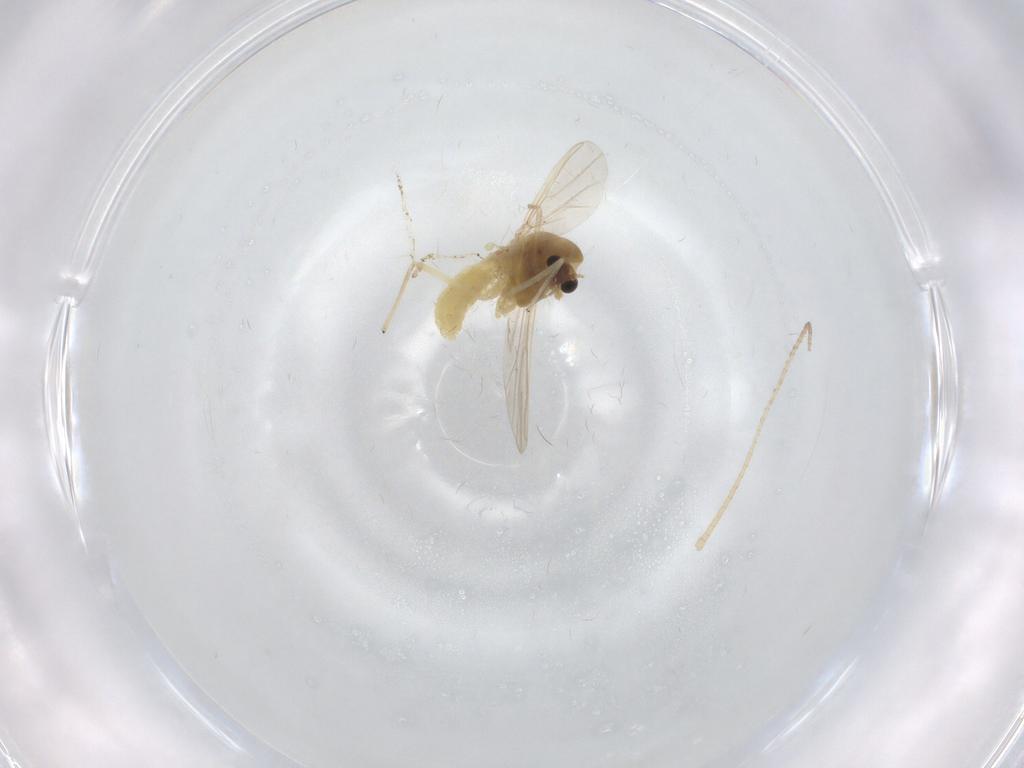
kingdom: Animalia
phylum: Arthropoda
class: Insecta
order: Diptera
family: Chironomidae
